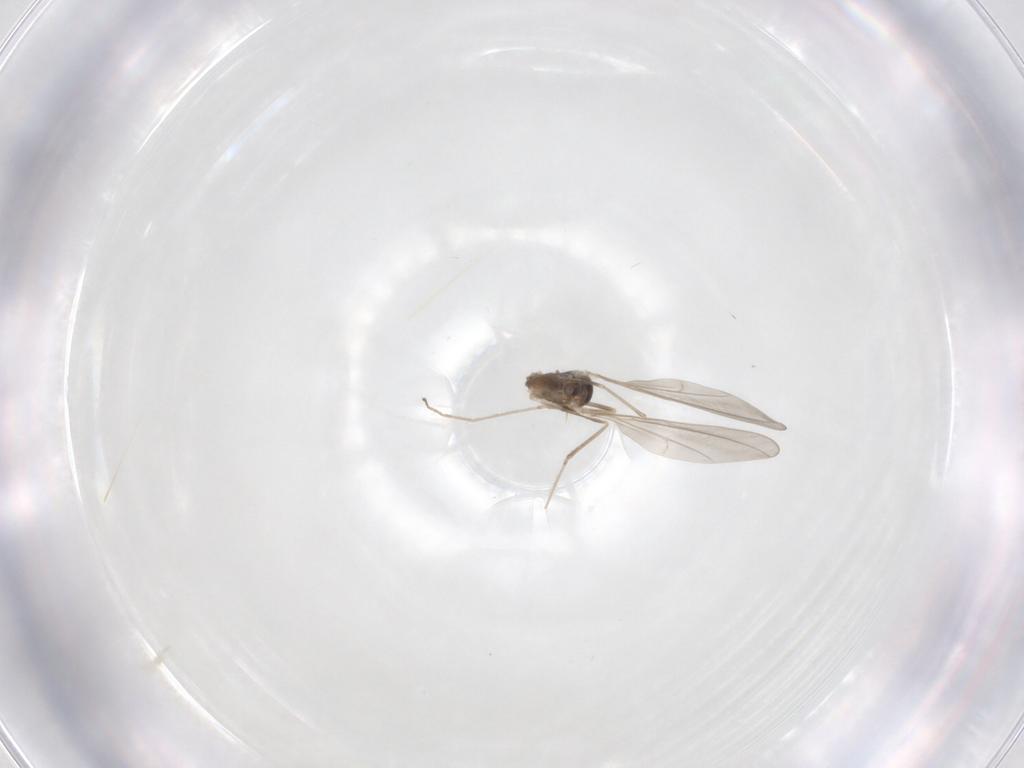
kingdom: Animalia
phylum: Arthropoda
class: Insecta
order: Diptera
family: Cecidomyiidae
